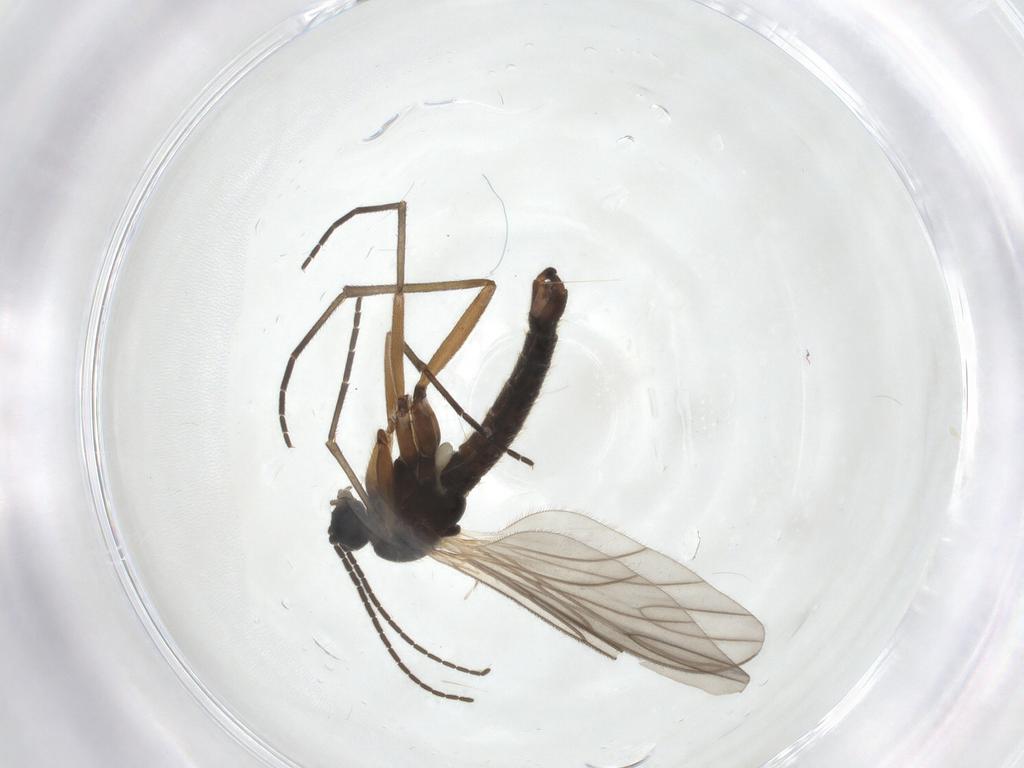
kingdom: Animalia
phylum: Arthropoda
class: Insecta
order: Diptera
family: Sciaridae
